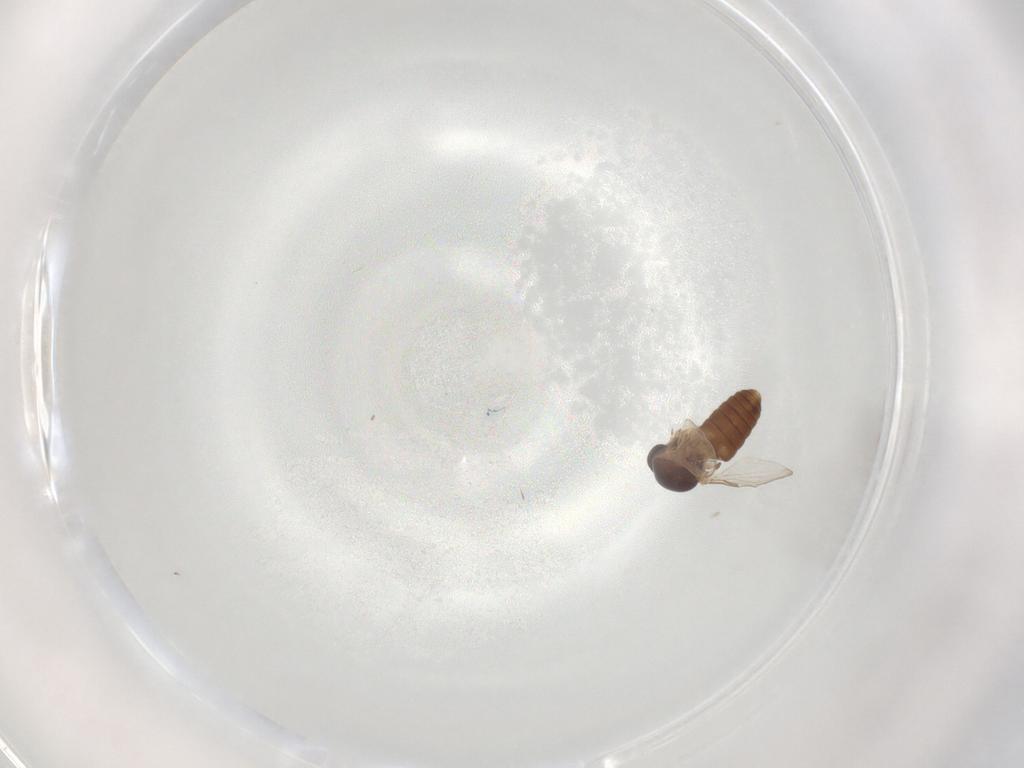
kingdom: Animalia
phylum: Arthropoda
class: Insecta
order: Diptera
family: Ceratopogonidae
